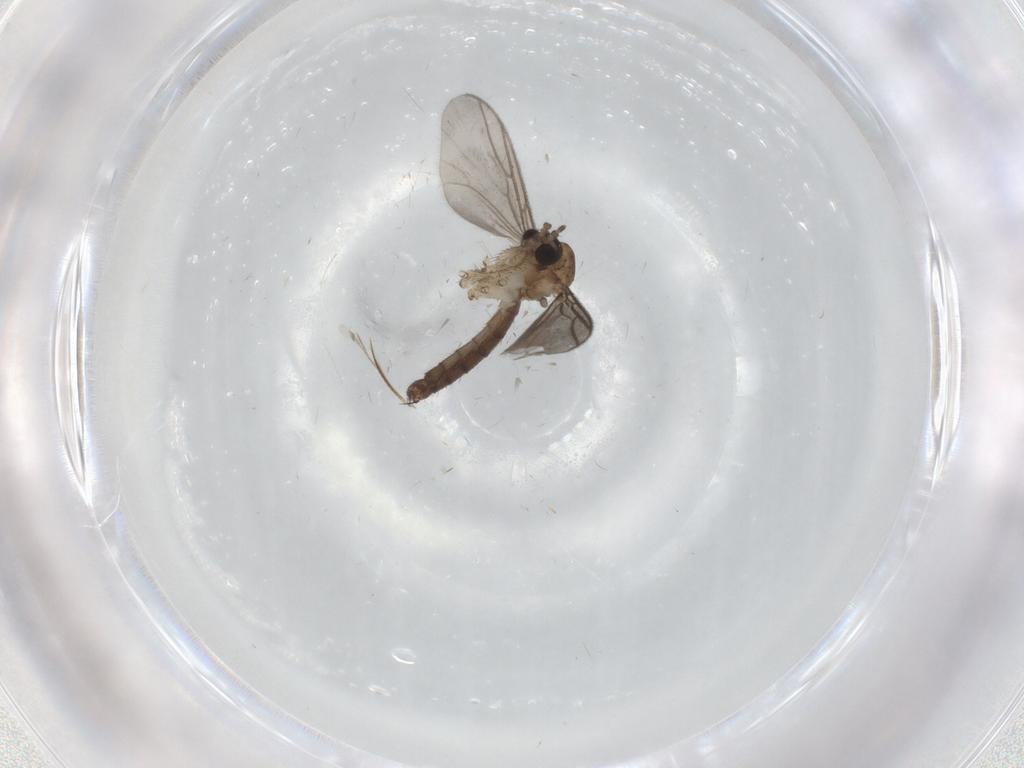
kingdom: Animalia
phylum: Arthropoda
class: Insecta
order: Diptera
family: Mycetophilidae
